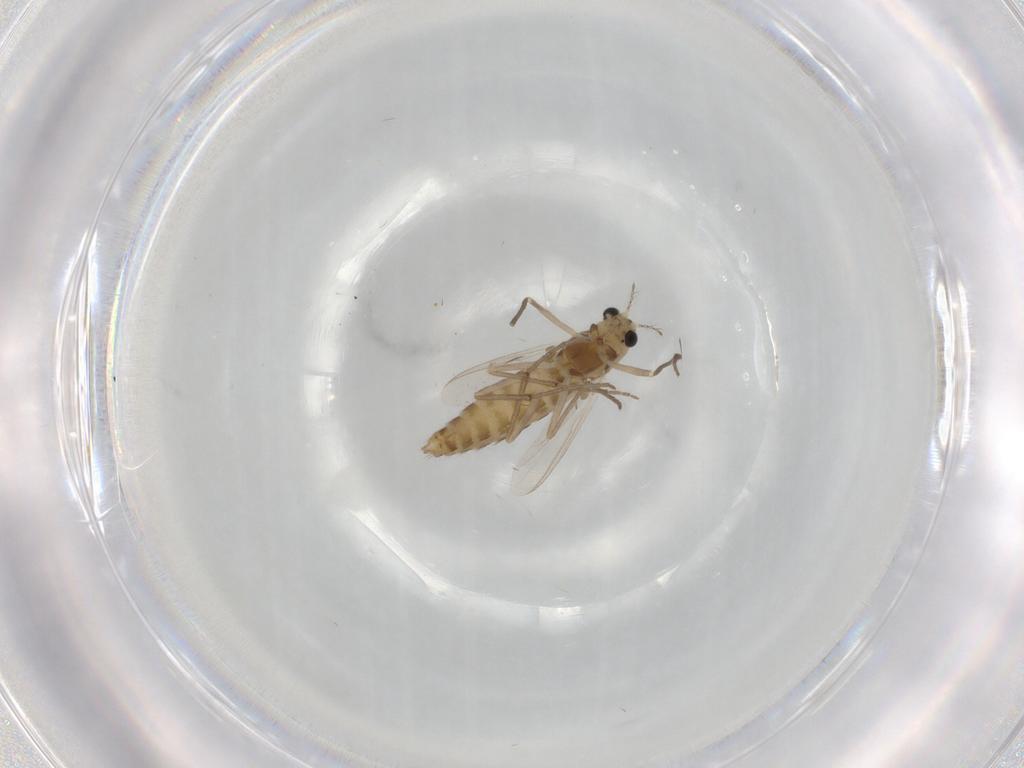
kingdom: Animalia
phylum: Arthropoda
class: Insecta
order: Diptera
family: Chironomidae
